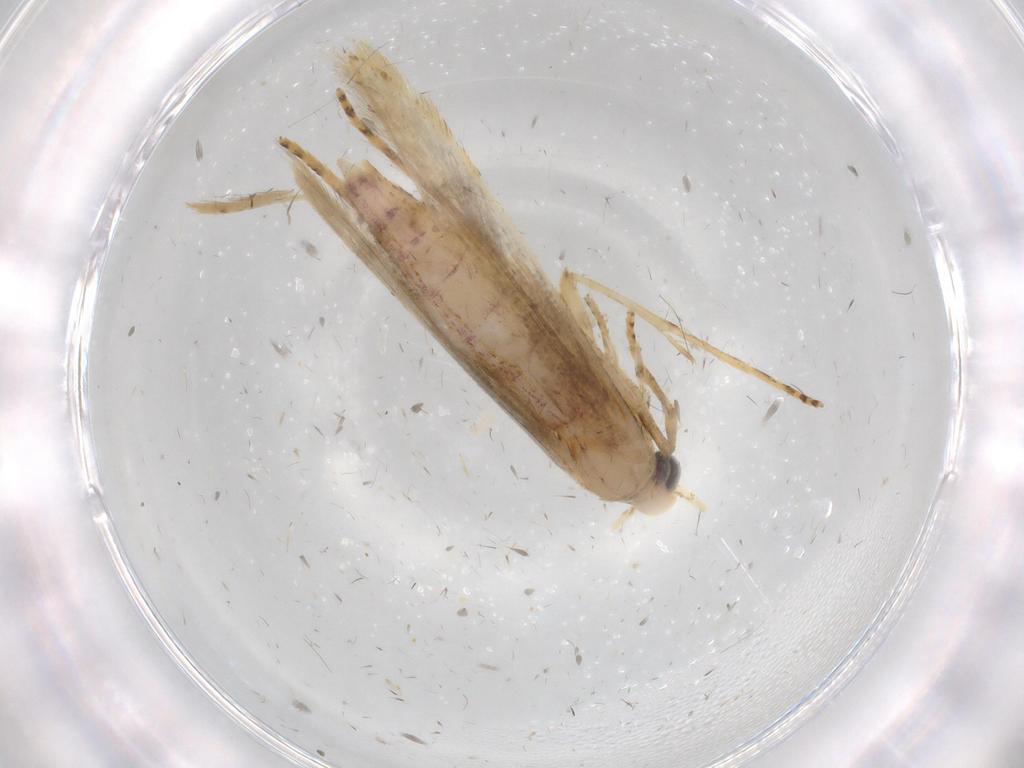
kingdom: Animalia
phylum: Arthropoda
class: Insecta
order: Lepidoptera
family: Batrachedridae
